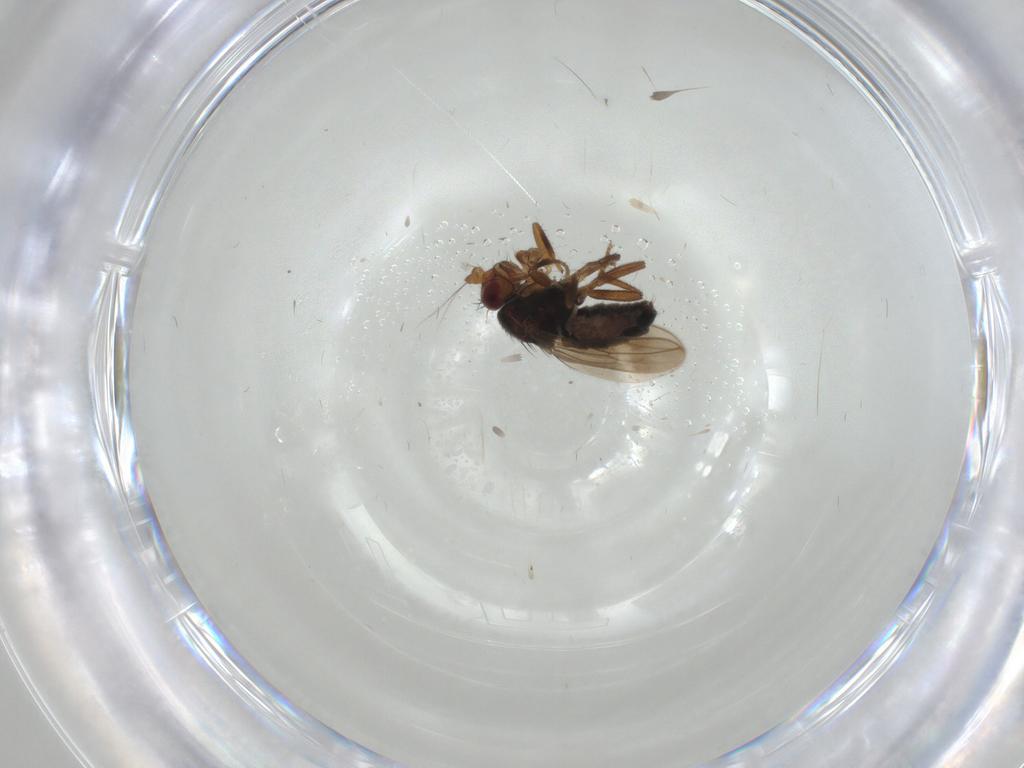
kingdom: Animalia
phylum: Arthropoda
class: Insecta
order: Diptera
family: Sphaeroceridae
